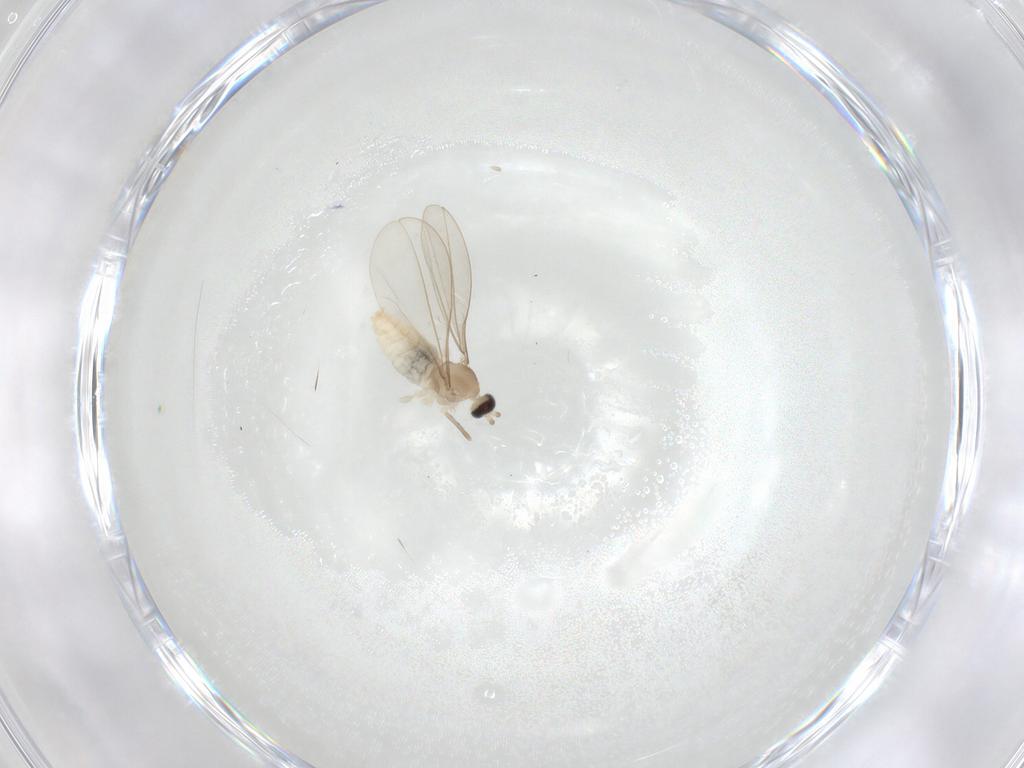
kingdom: Animalia
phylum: Arthropoda
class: Insecta
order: Diptera
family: Cecidomyiidae
